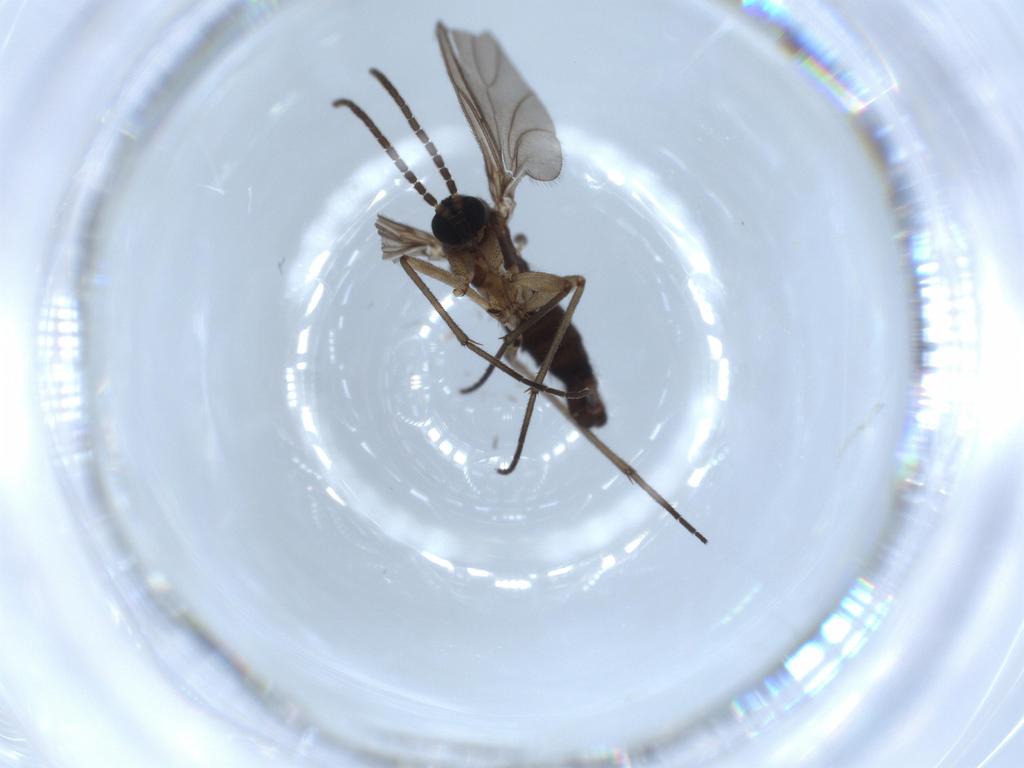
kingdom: Animalia
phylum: Arthropoda
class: Insecta
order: Diptera
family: Sciaridae
